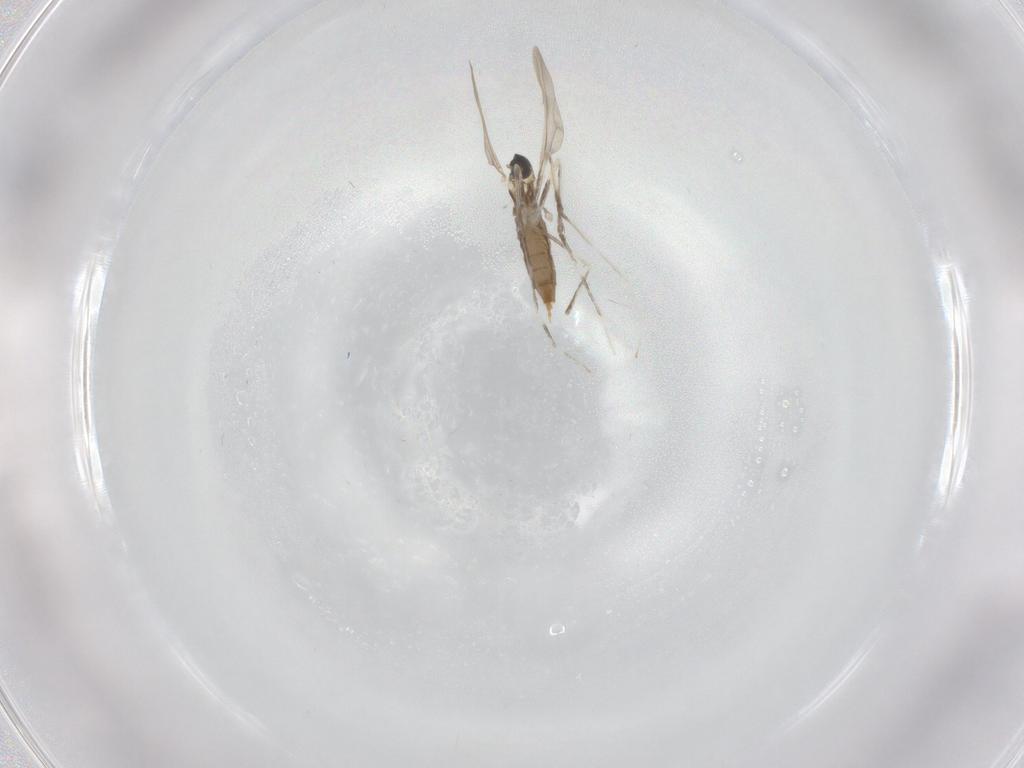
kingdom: Animalia
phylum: Arthropoda
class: Insecta
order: Diptera
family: Cecidomyiidae
